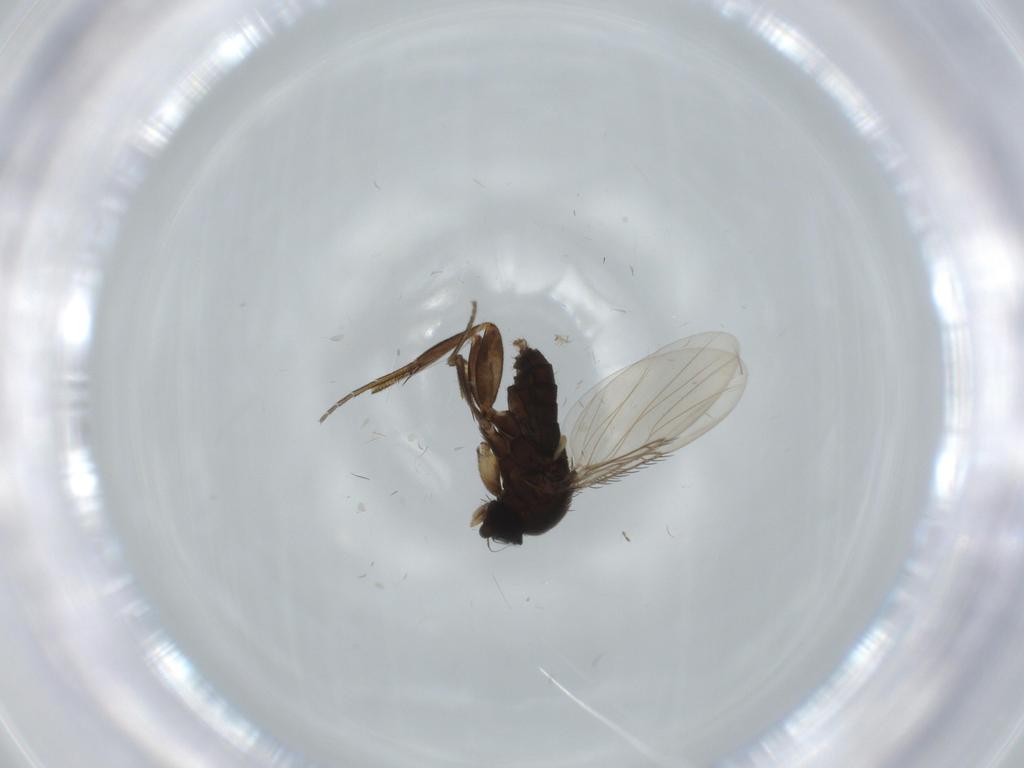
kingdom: Animalia
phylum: Arthropoda
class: Insecta
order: Diptera
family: Phoridae
